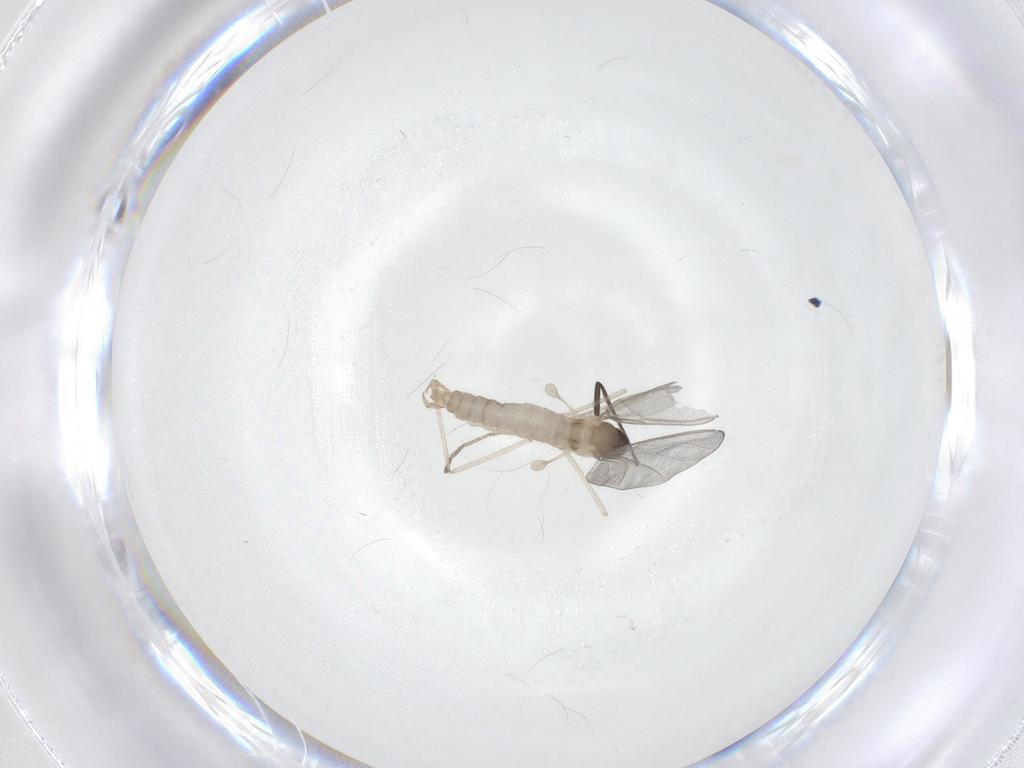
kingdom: Animalia
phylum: Arthropoda
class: Insecta
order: Diptera
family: Cecidomyiidae
